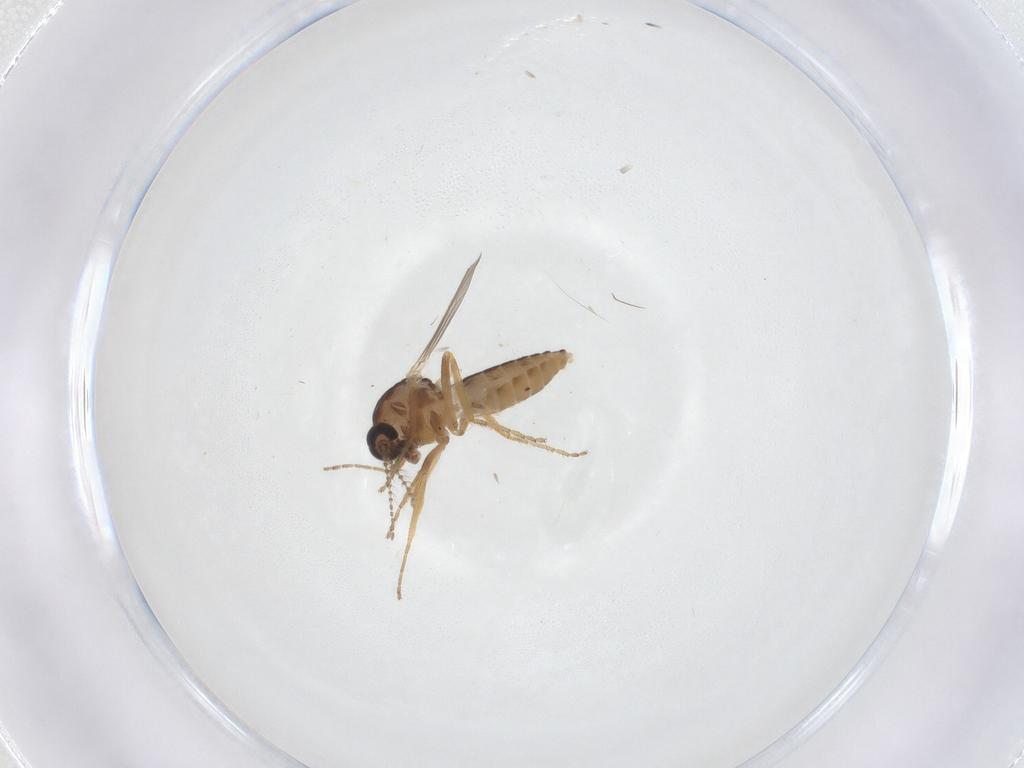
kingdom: Animalia
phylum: Arthropoda
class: Insecta
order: Diptera
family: Ceratopogonidae
